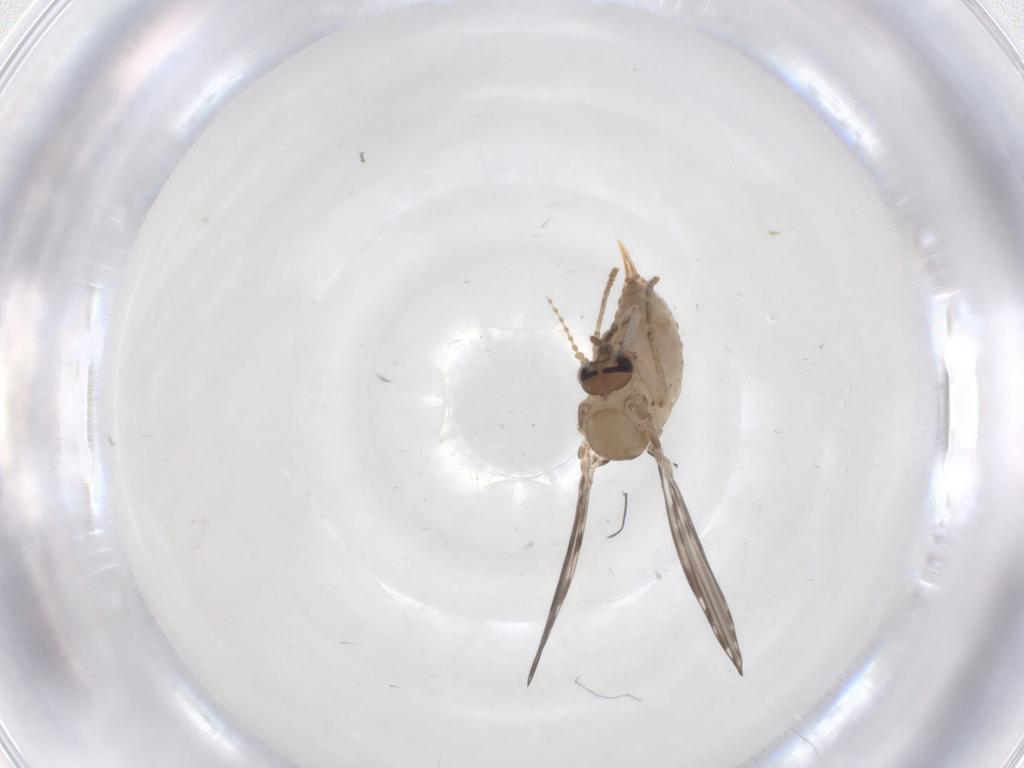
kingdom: Animalia
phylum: Arthropoda
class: Insecta
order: Diptera
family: Psychodidae
